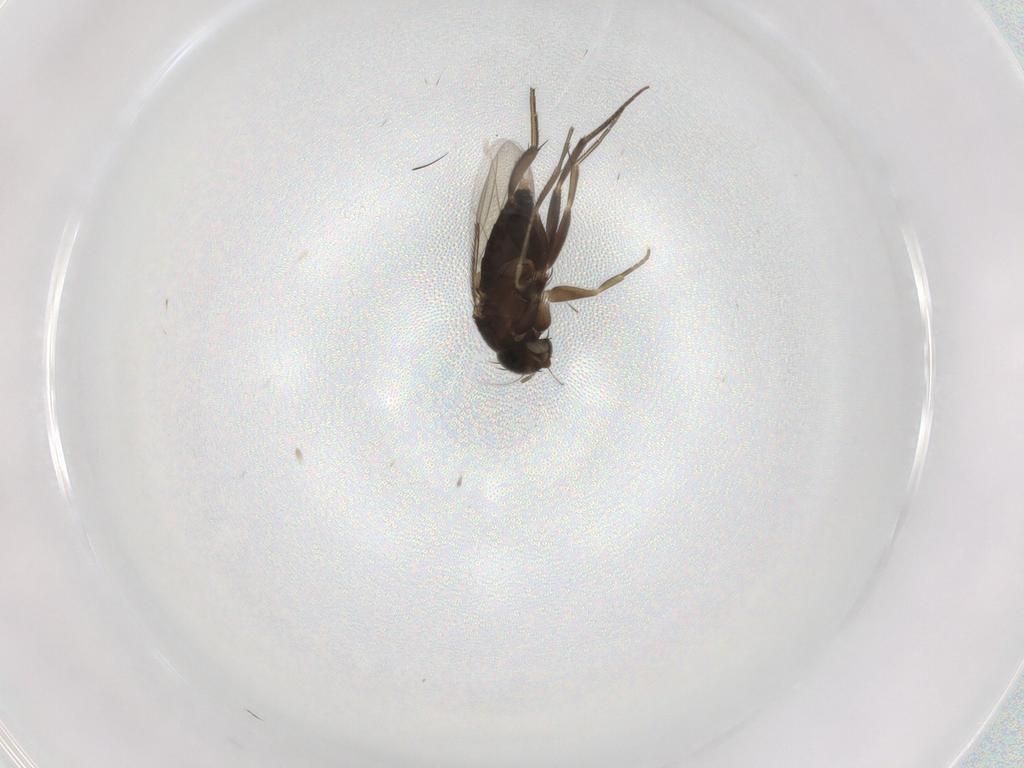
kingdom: Animalia
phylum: Arthropoda
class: Insecta
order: Diptera
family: Phoridae
